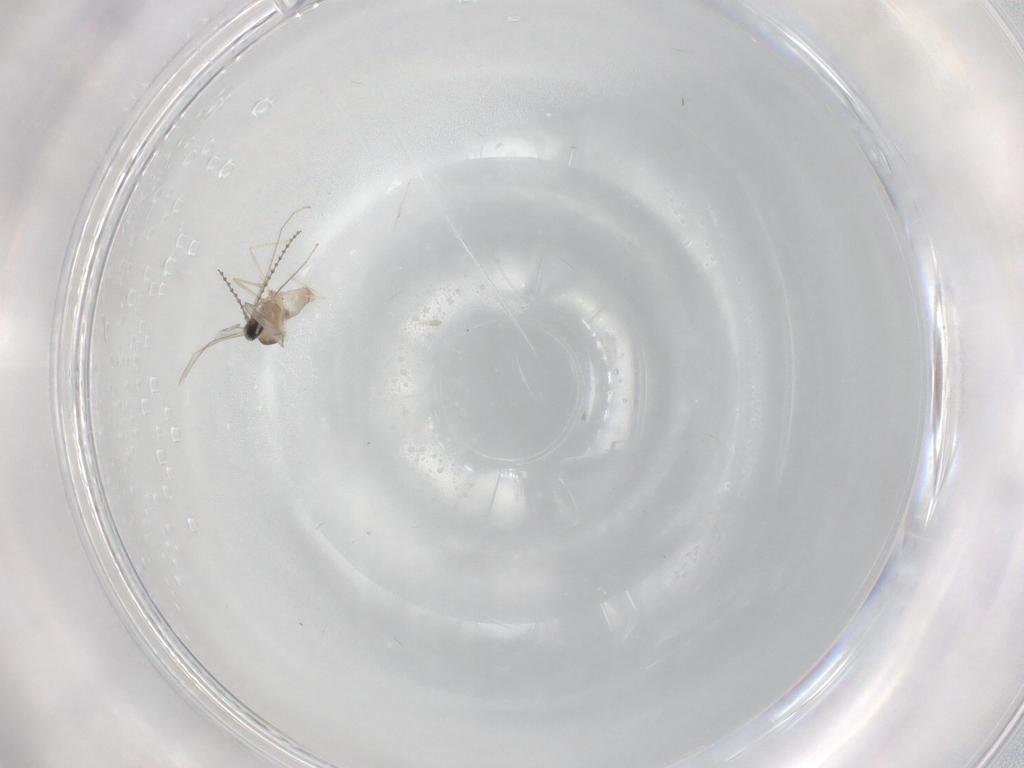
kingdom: Animalia
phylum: Arthropoda
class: Insecta
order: Diptera
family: Cecidomyiidae
